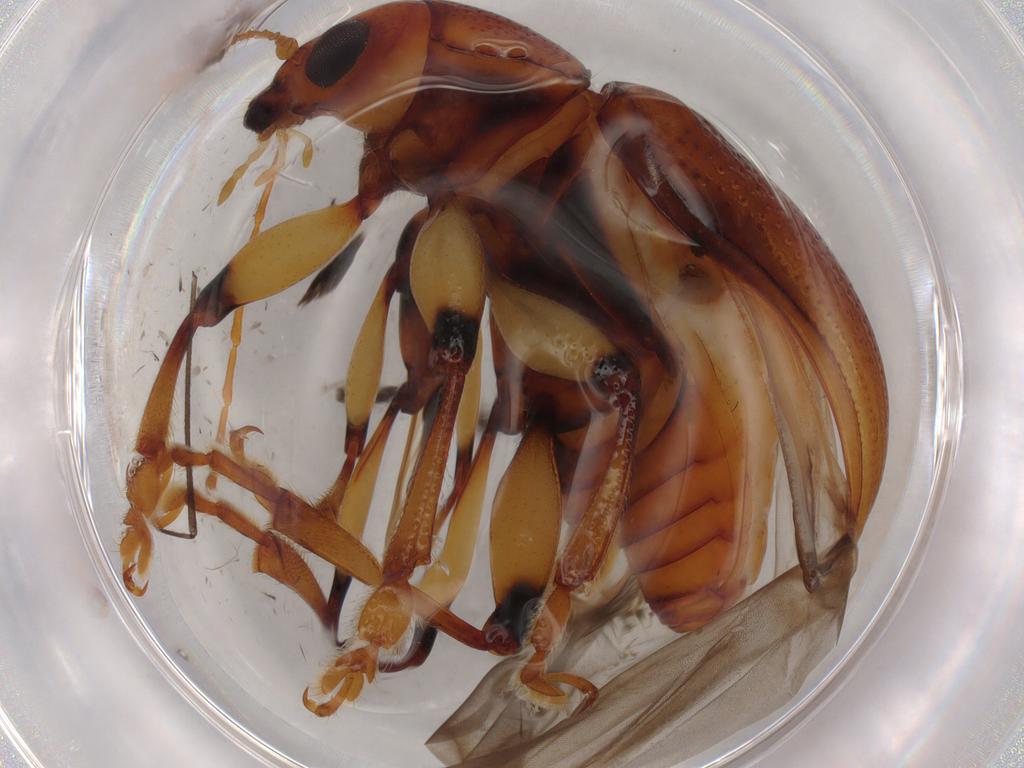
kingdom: Animalia
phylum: Arthropoda
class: Insecta
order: Coleoptera
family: Chrysomelidae
